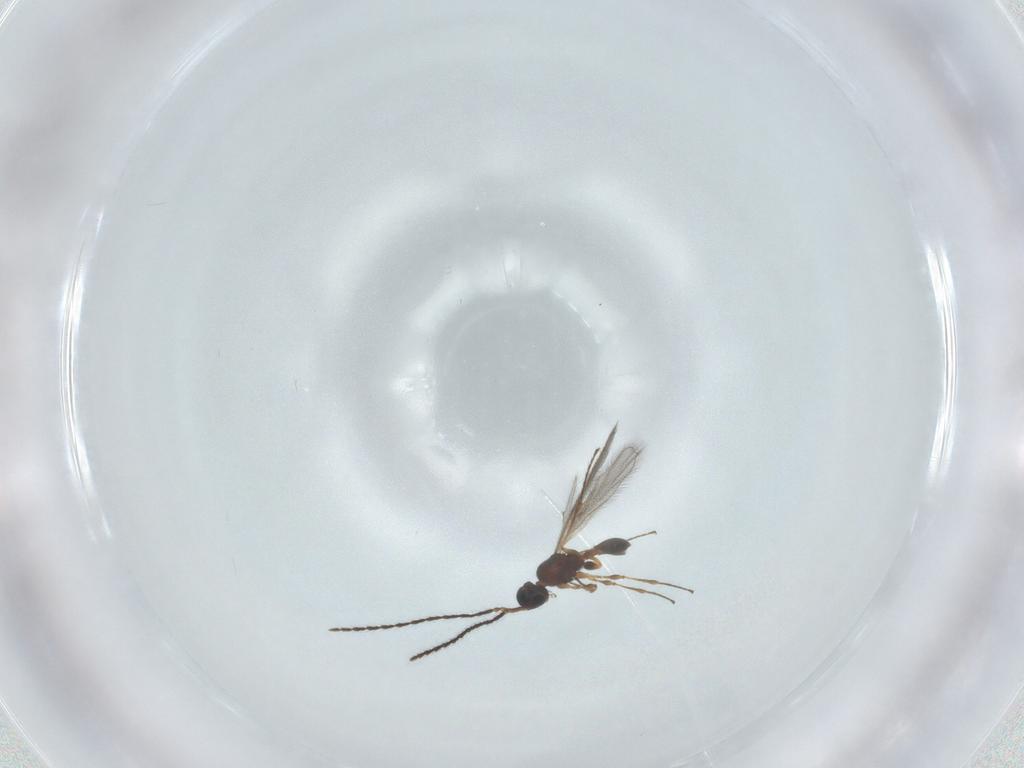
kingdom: Animalia
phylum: Arthropoda
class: Insecta
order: Hymenoptera
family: Diapriidae
